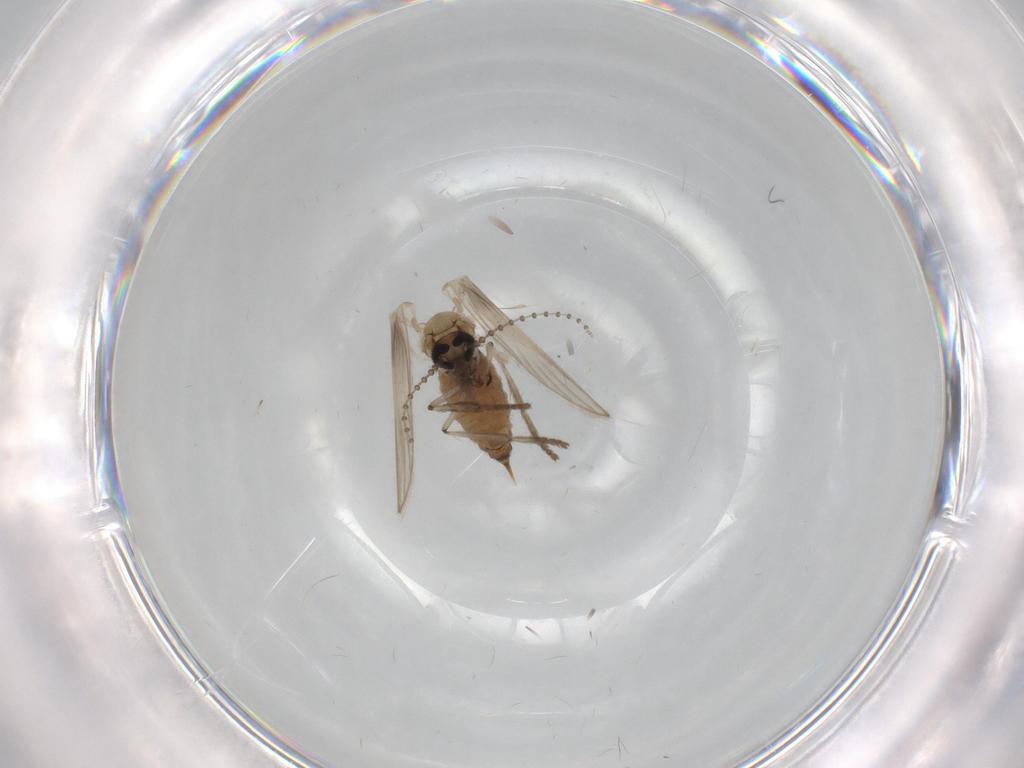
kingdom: Animalia
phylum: Arthropoda
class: Insecta
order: Diptera
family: Psychodidae
